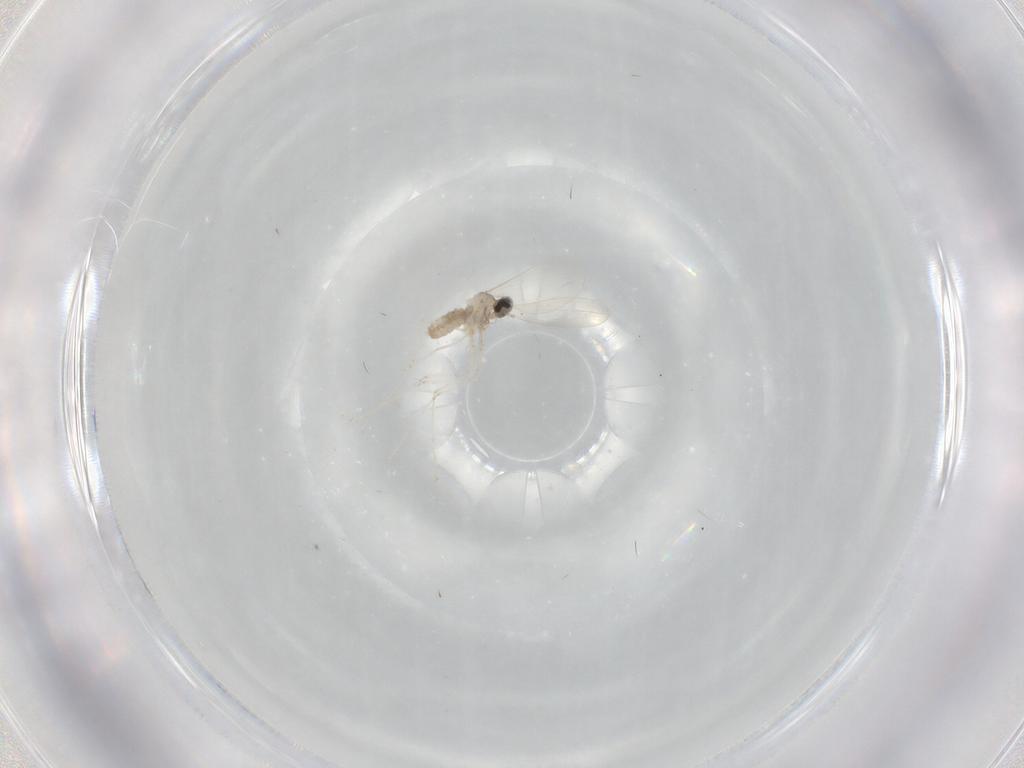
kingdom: Animalia
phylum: Arthropoda
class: Insecta
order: Diptera
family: Cecidomyiidae
